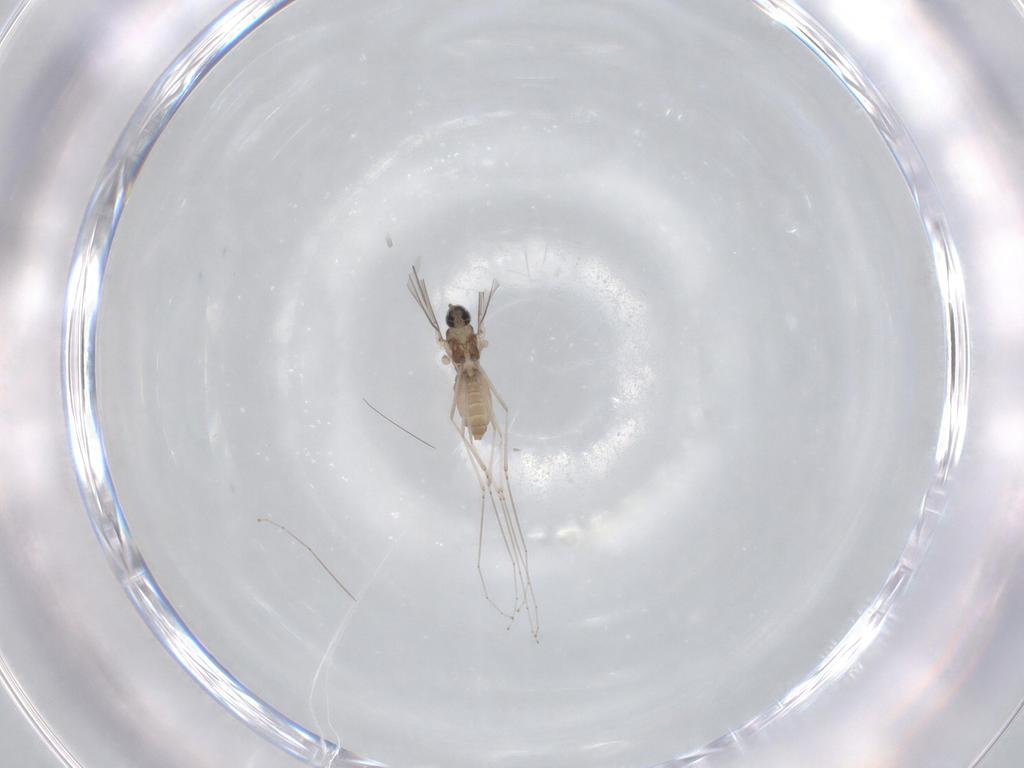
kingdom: Animalia
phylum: Arthropoda
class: Insecta
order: Diptera
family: Cecidomyiidae
